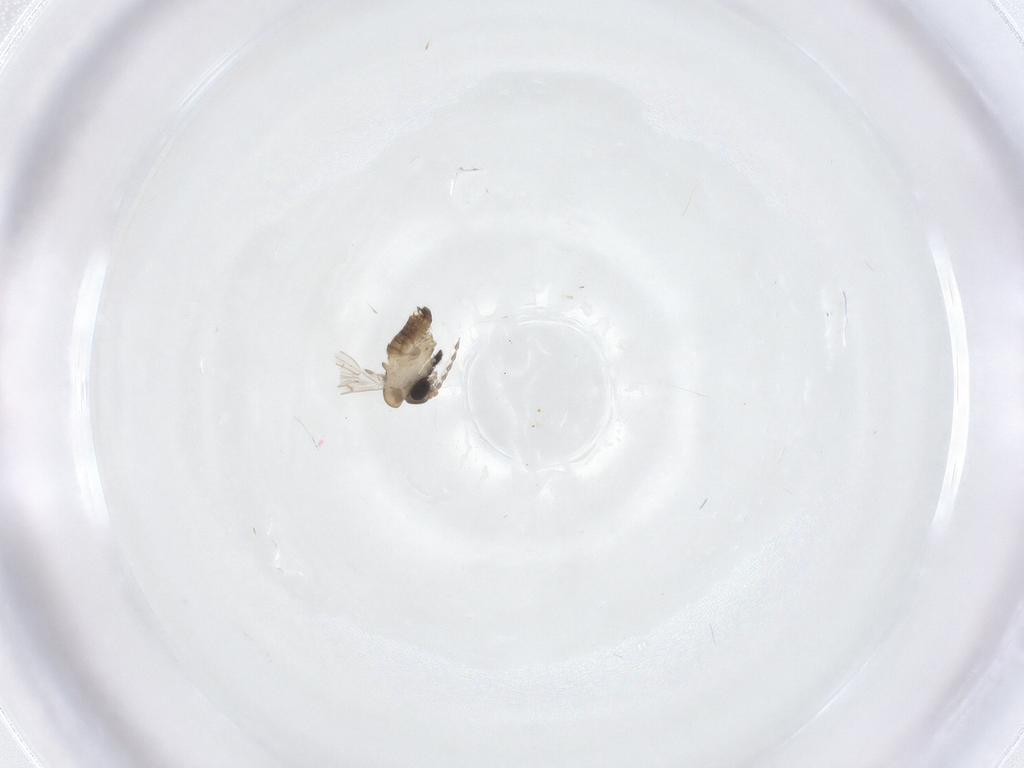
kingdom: Animalia
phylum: Arthropoda
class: Insecta
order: Diptera
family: Psychodidae
